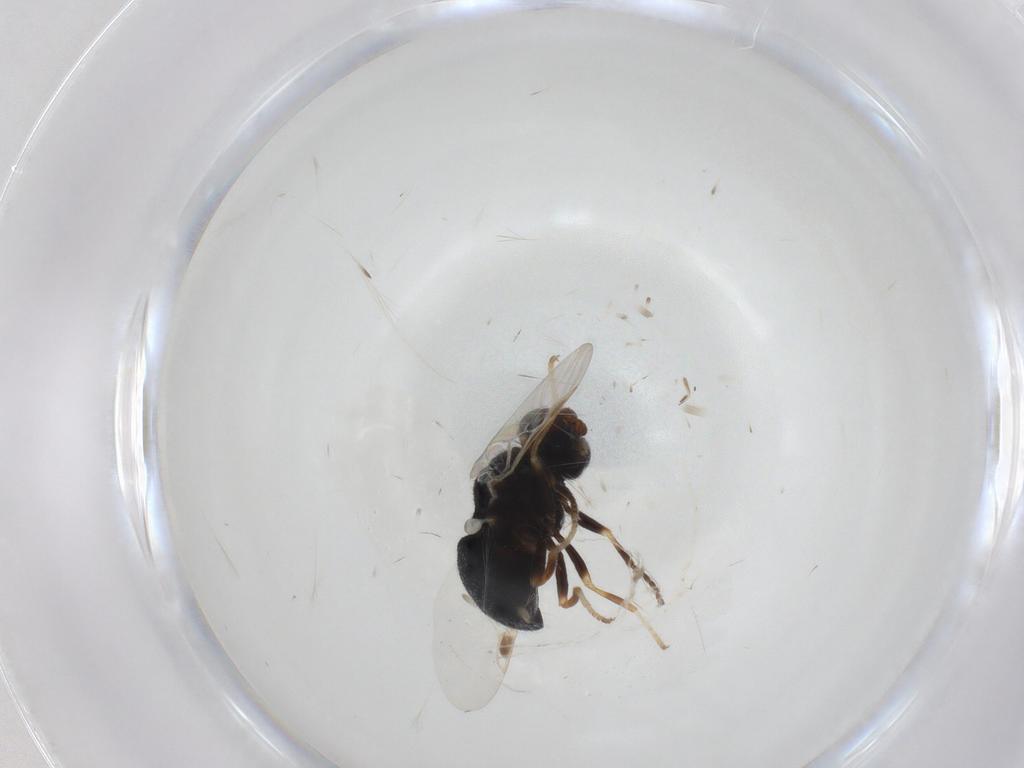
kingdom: Animalia
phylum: Arthropoda
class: Insecta
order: Diptera
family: Stratiomyidae
